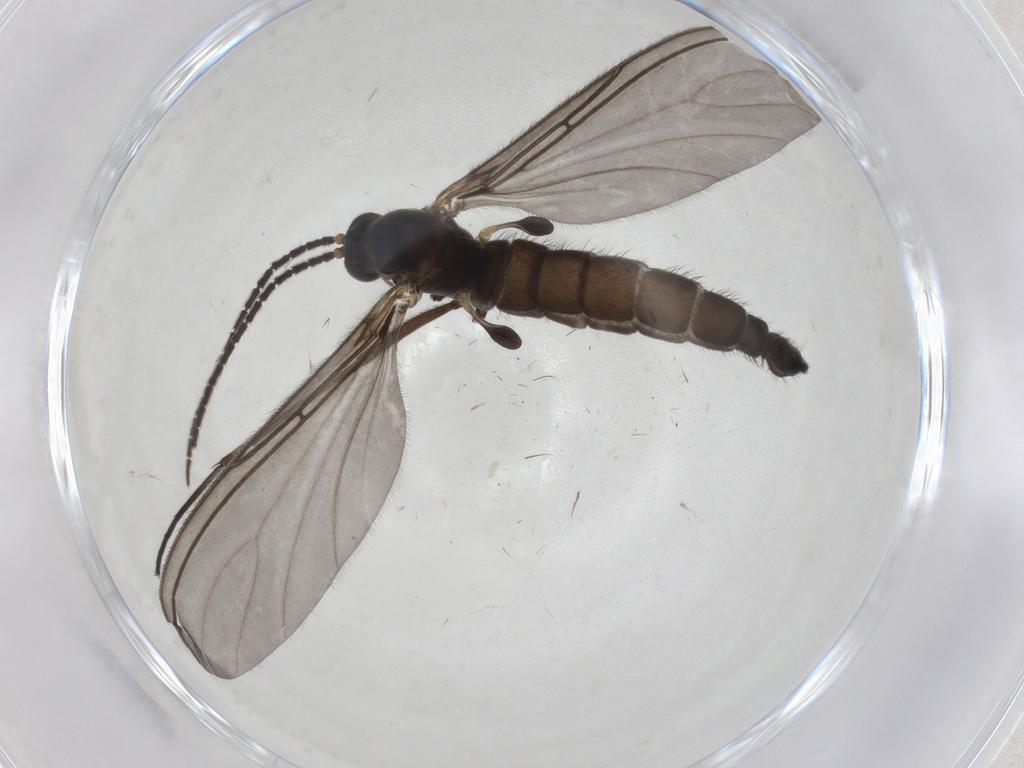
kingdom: Animalia
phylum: Arthropoda
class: Insecta
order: Diptera
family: Sciaridae
